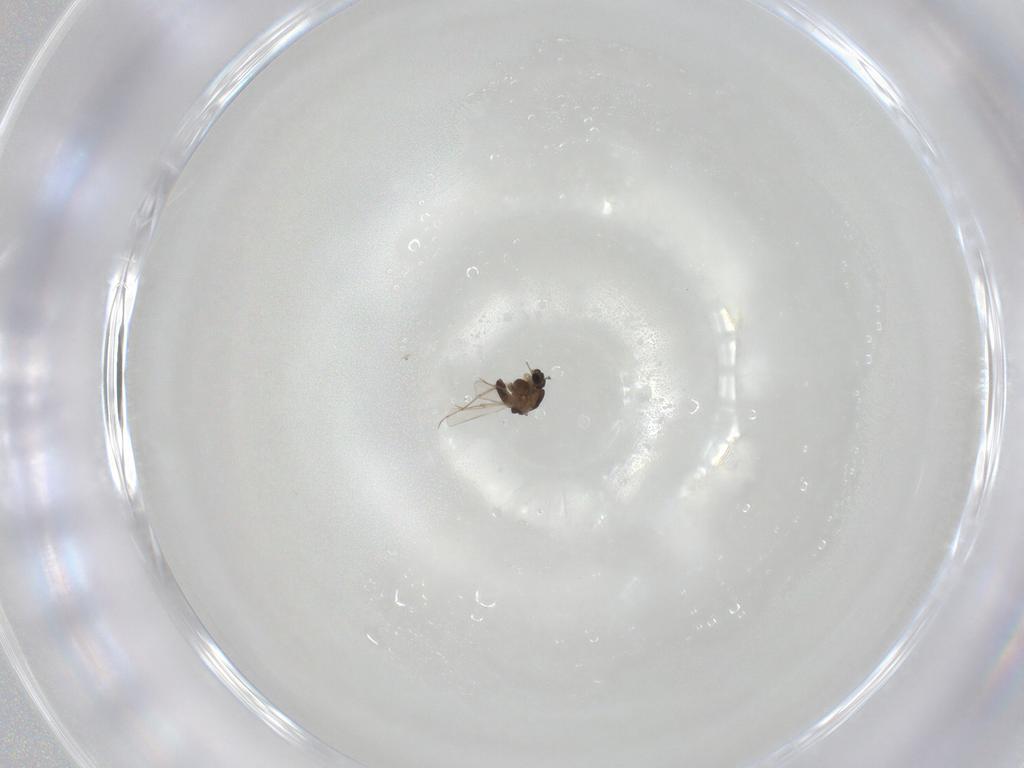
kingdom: Animalia
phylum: Arthropoda
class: Insecta
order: Diptera
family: Chironomidae
